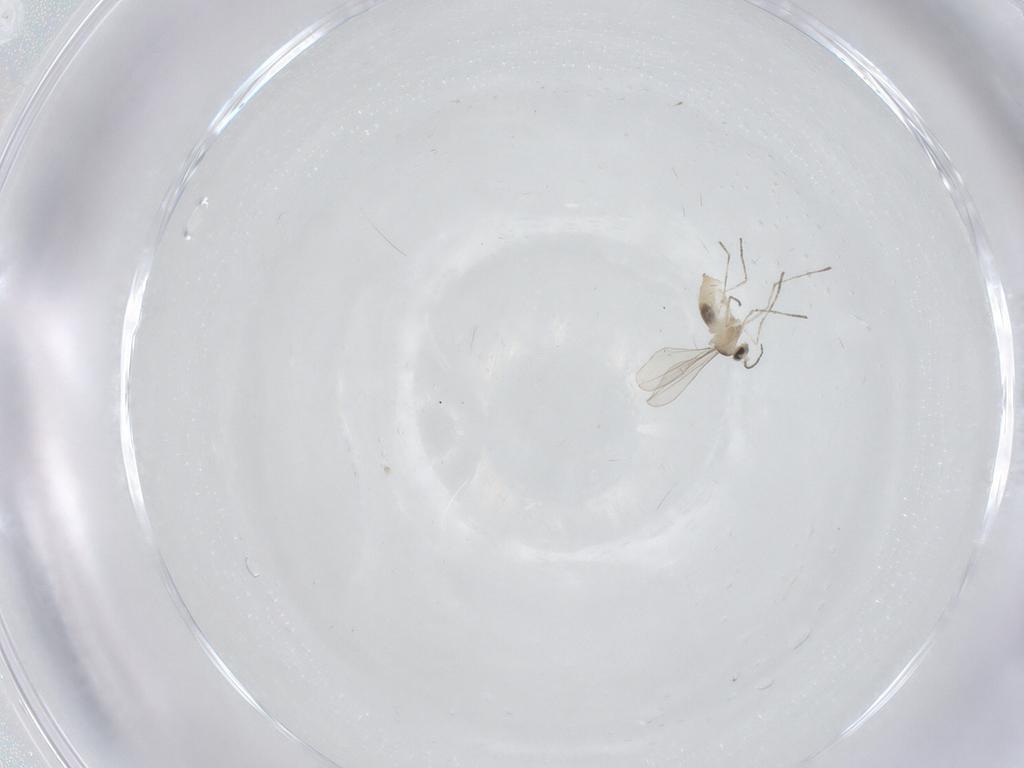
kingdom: Animalia
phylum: Arthropoda
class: Insecta
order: Diptera
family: Cecidomyiidae
